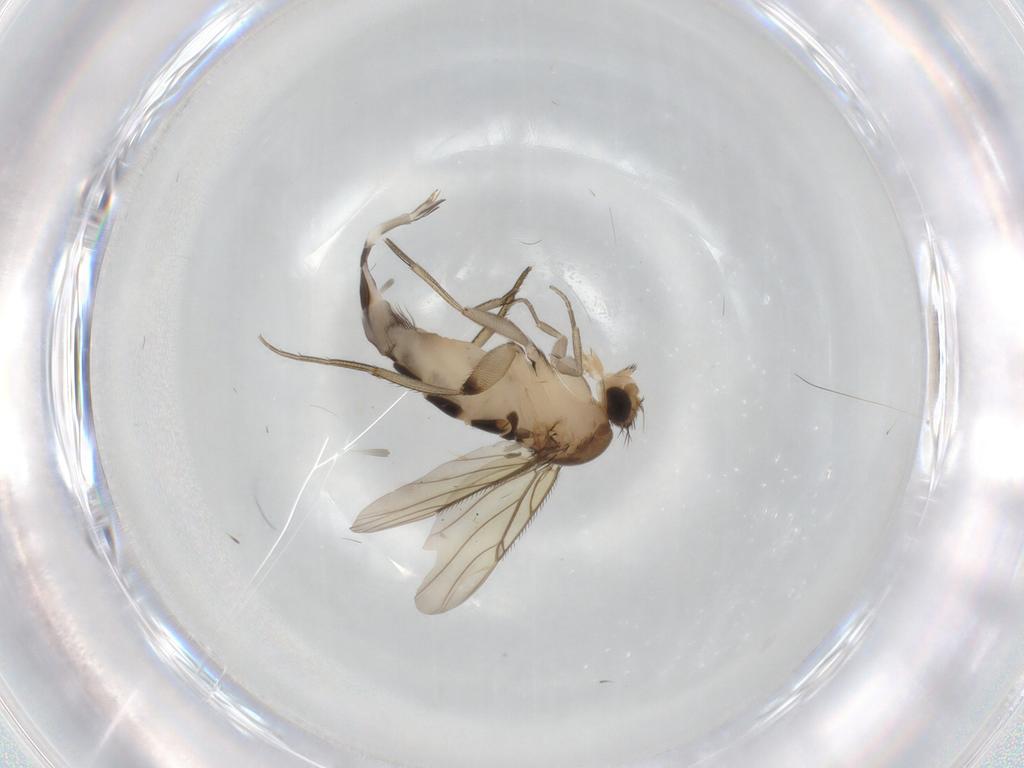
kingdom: Animalia
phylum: Arthropoda
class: Insecta
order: Diptera
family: Phoridae
